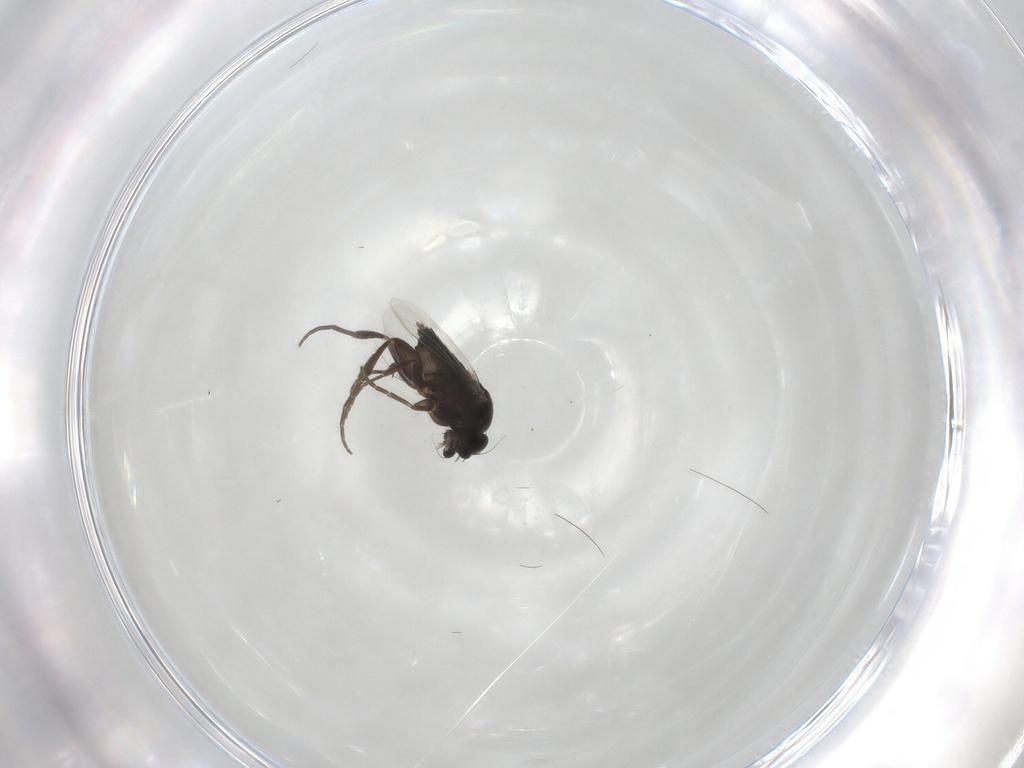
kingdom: Animalia
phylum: Arthropoda
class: Insecta
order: Diptera
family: Phoridae
